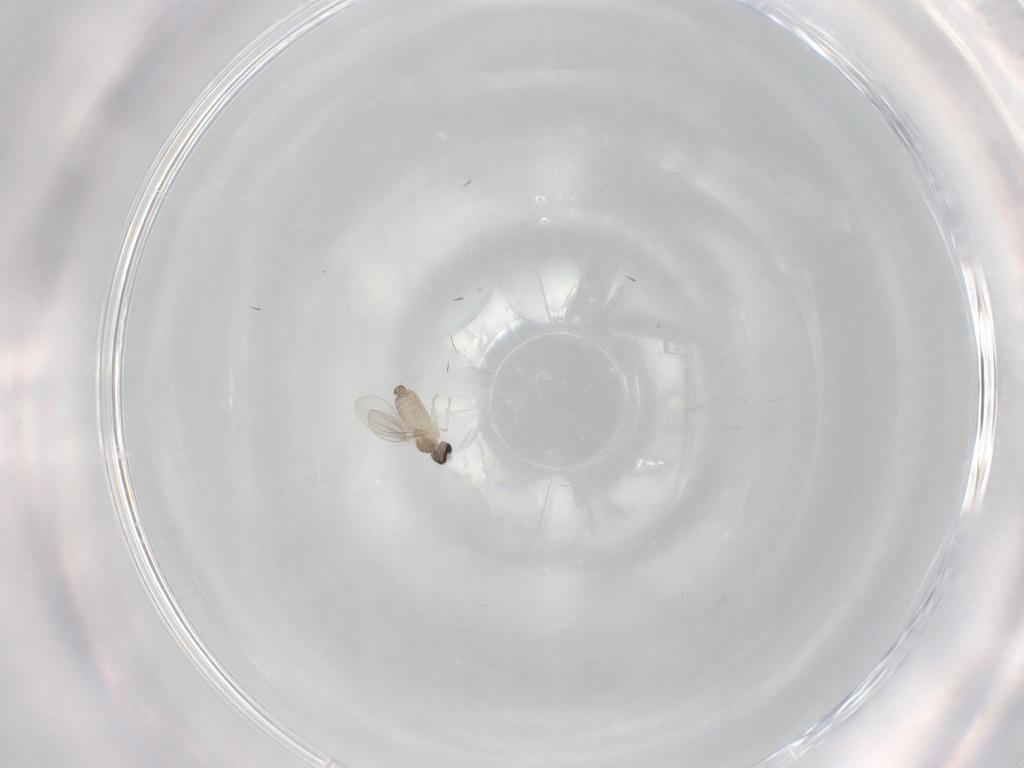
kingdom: Animalia
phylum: Arthropoda
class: Insecta
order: Diptera
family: Cecidomyiidae
